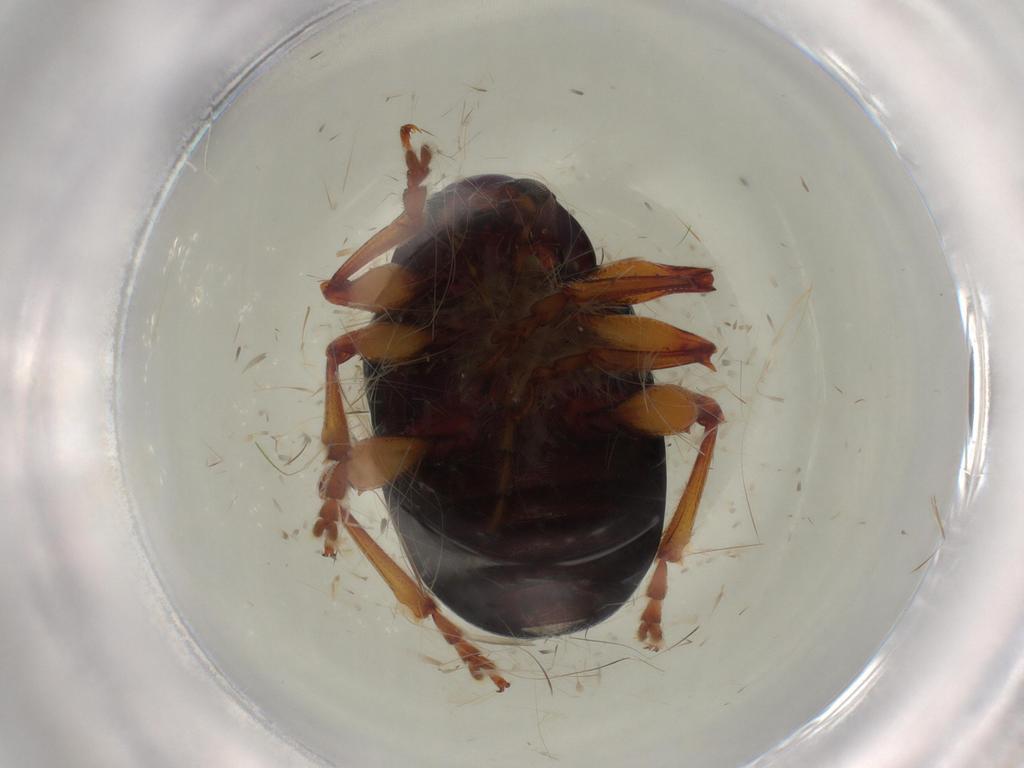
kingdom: Animalia
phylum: Arthropoda
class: Insecta
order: Coleoptera
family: Chrysomelidae
